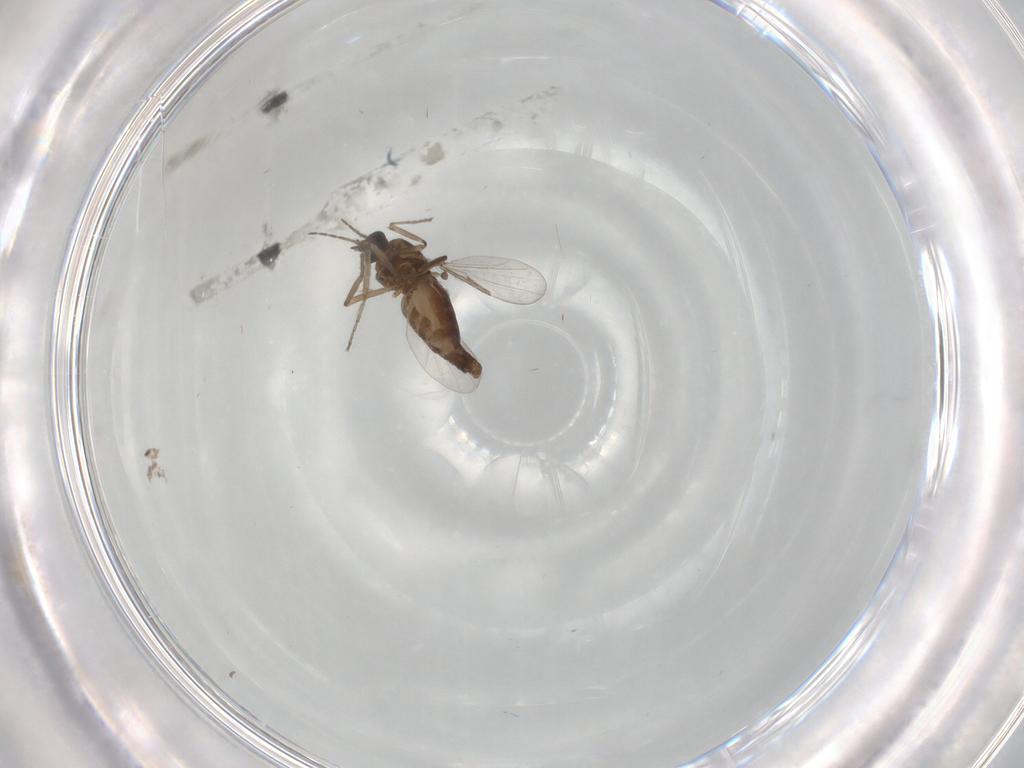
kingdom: Animalia
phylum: Arthropoda
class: Insecta
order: Diptera
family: Ceratopogonidae
